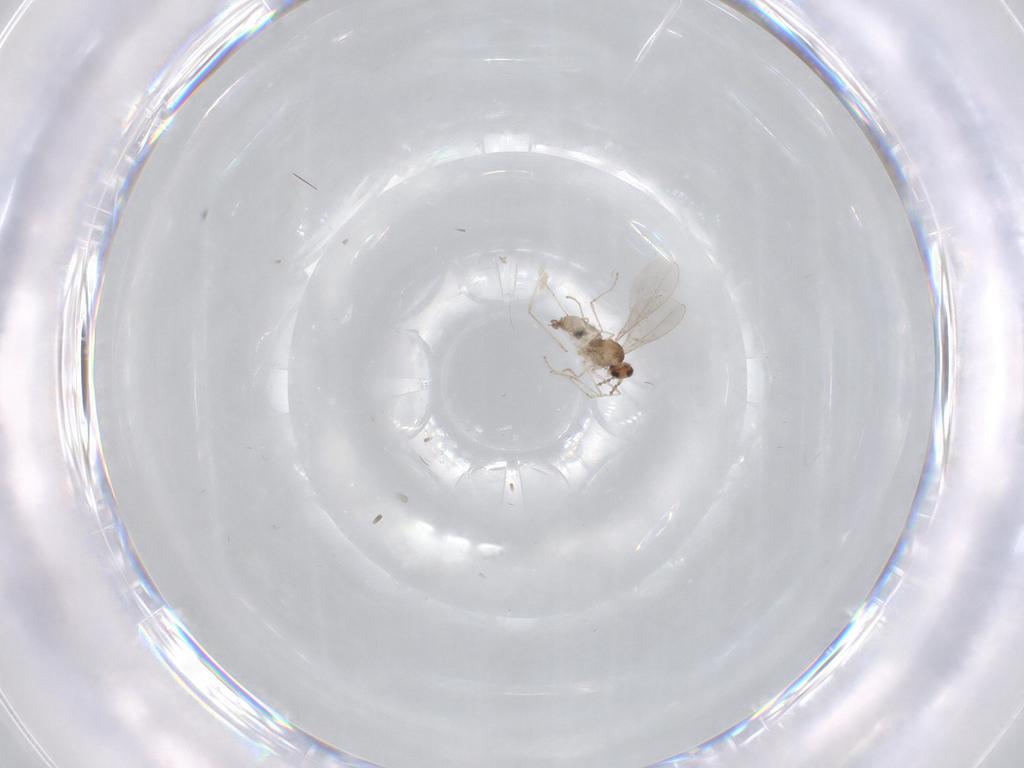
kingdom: Animalia
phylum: Arthropoda
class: Insecta
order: Diptera
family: Cecidomyiidae
